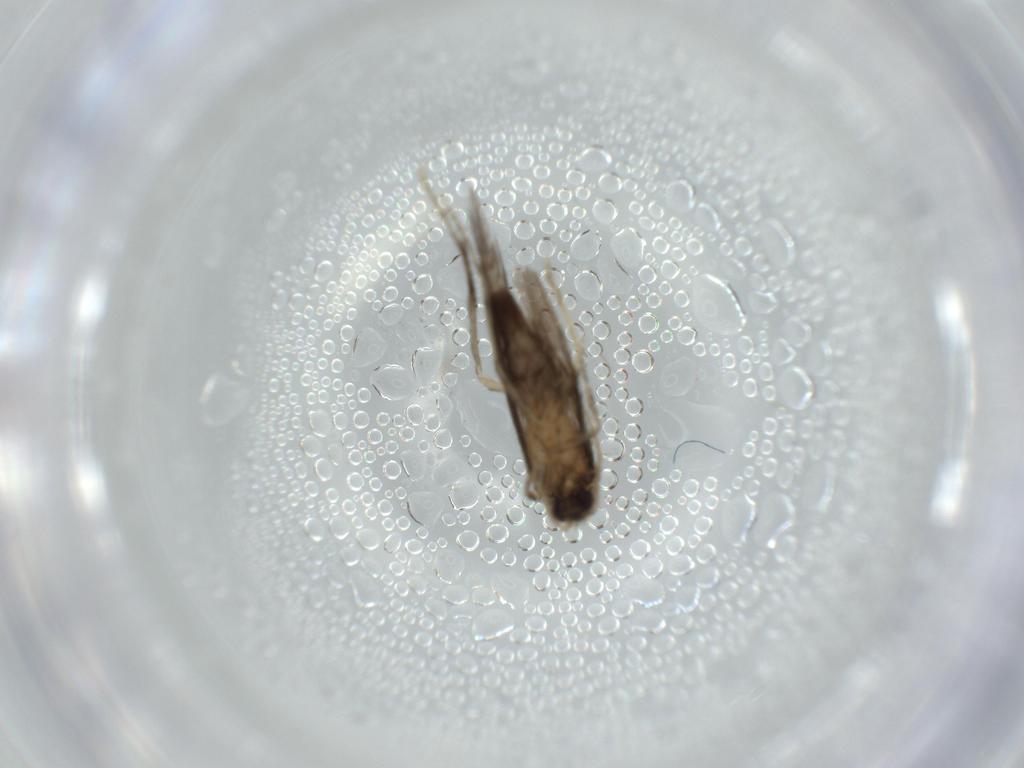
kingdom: Animalia
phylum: Arthropoda
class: Insecta
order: Trichoptera
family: Hydroptilidae
